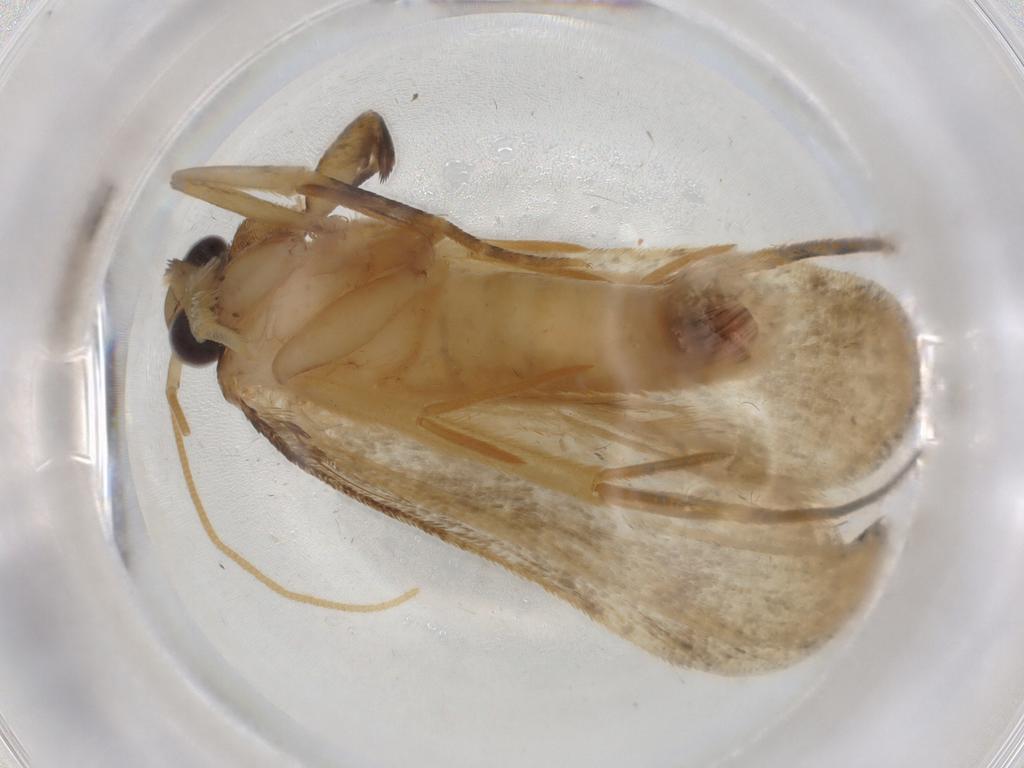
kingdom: Animalia
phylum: Arthropoda
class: Insecta
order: Lepidoptera
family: Tineidae
